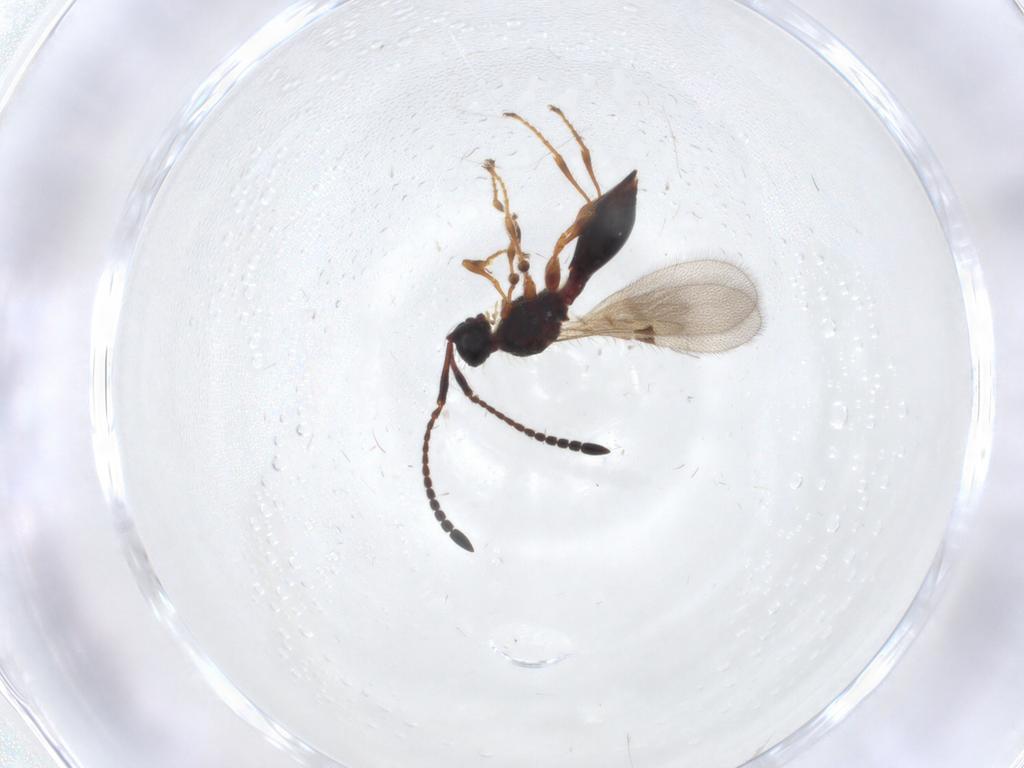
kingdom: Animalia
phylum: Arthropoda
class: Insecta
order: Hymenoptera
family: Diapriidae
